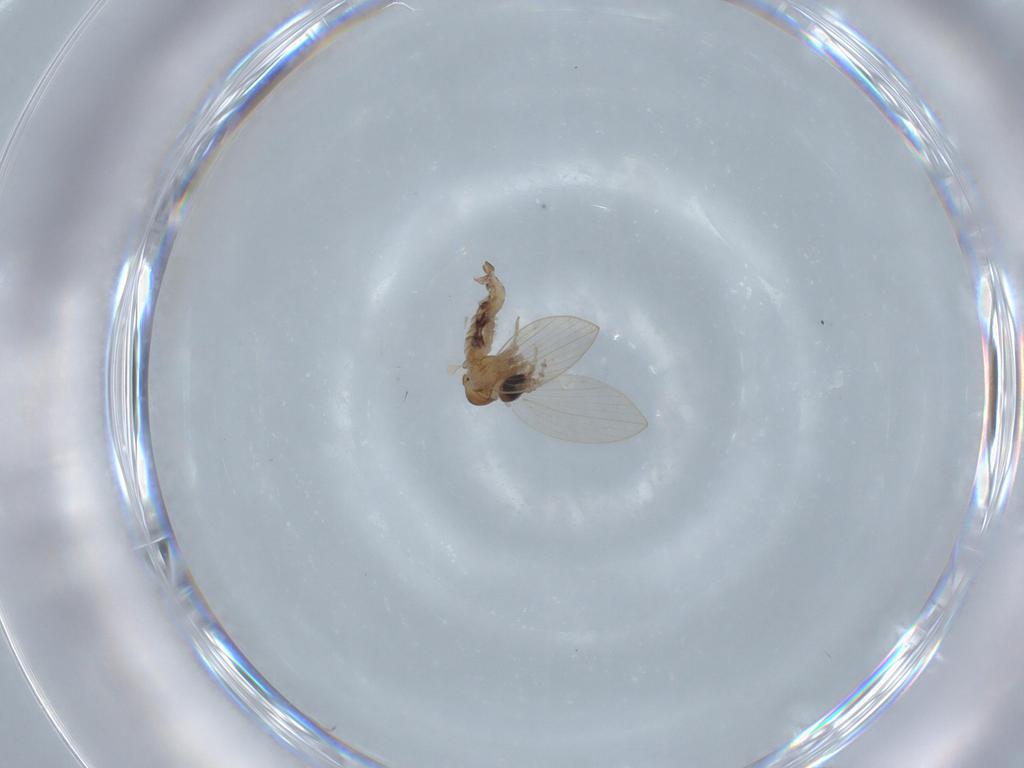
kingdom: Animalia
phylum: Arthropoda
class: Insecta
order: Diptera
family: Psychodidae
